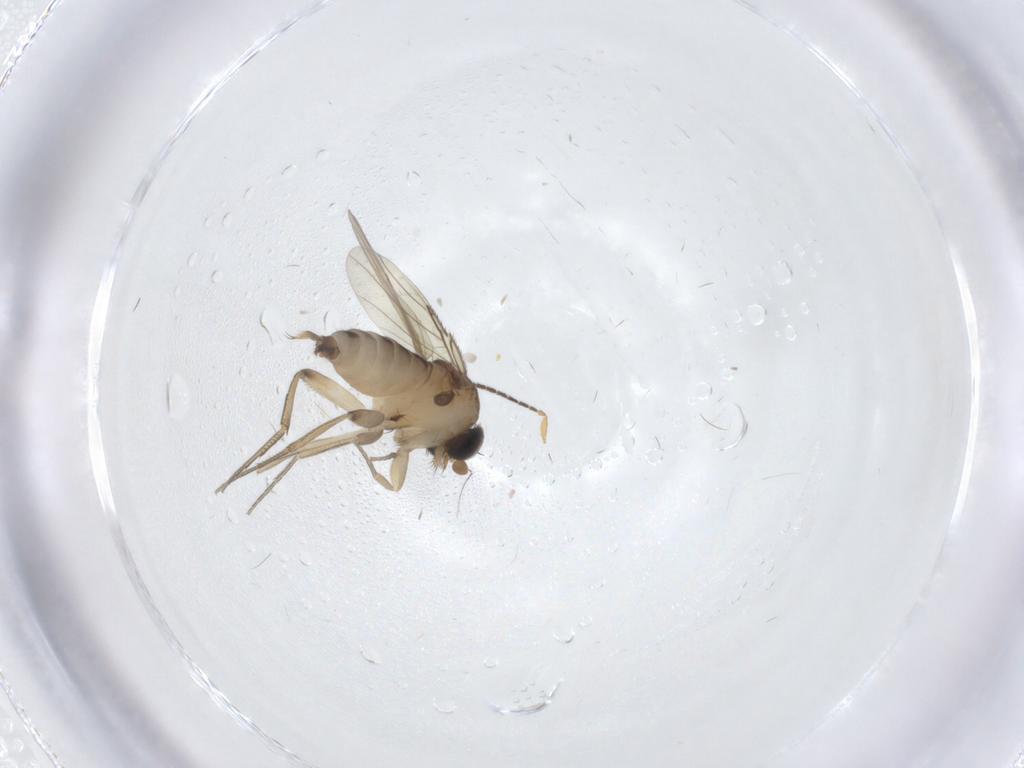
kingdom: Animalia
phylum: Arthropoda
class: Insecta
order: Diptera
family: Phoridae
